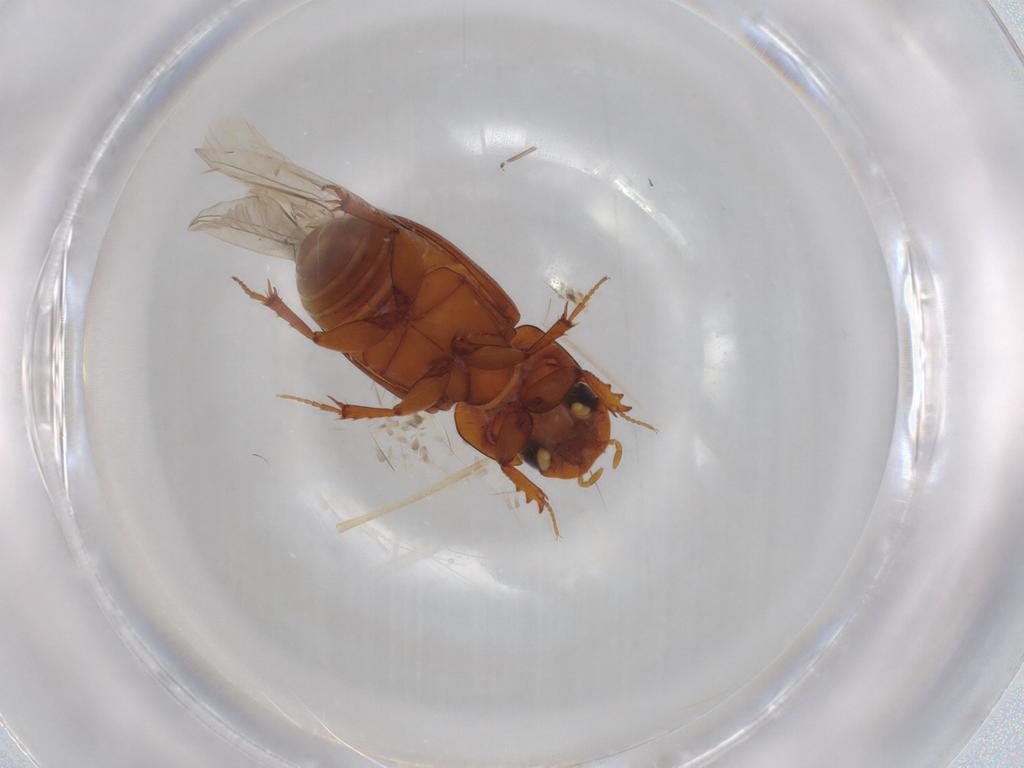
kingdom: Animalia
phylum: Arthropoda
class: Insecta
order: Coleoptera
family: Scarabaeidae
